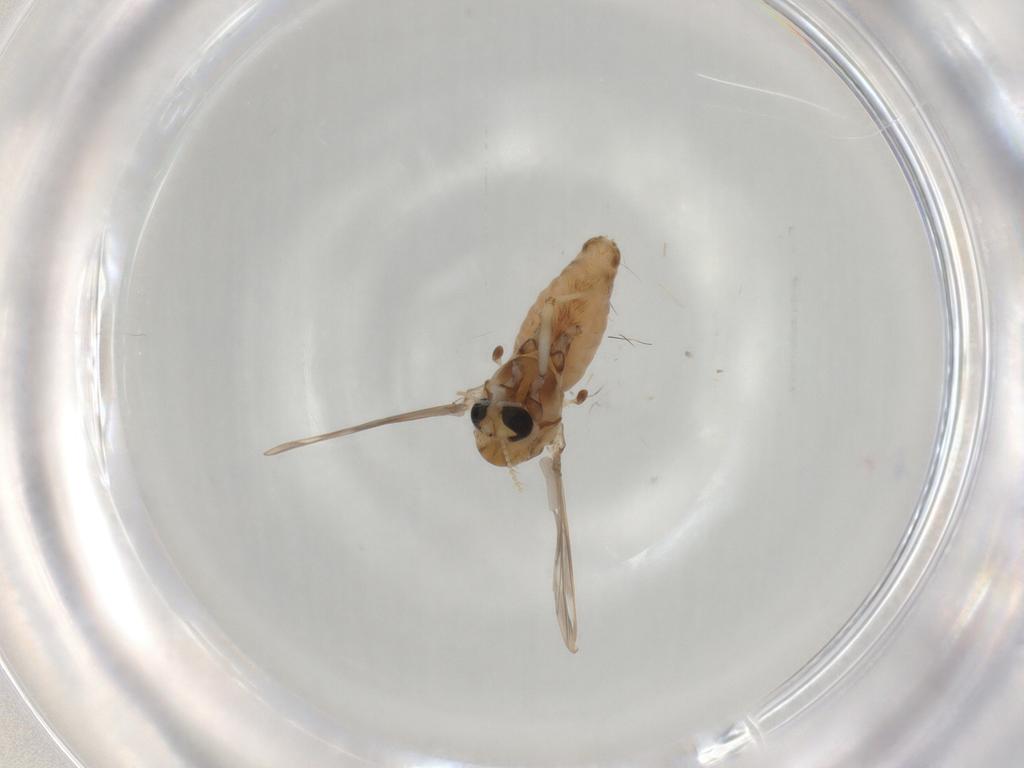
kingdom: Animalia
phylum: Arthropoda
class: Insecta
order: Diptera
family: Chironomidae
